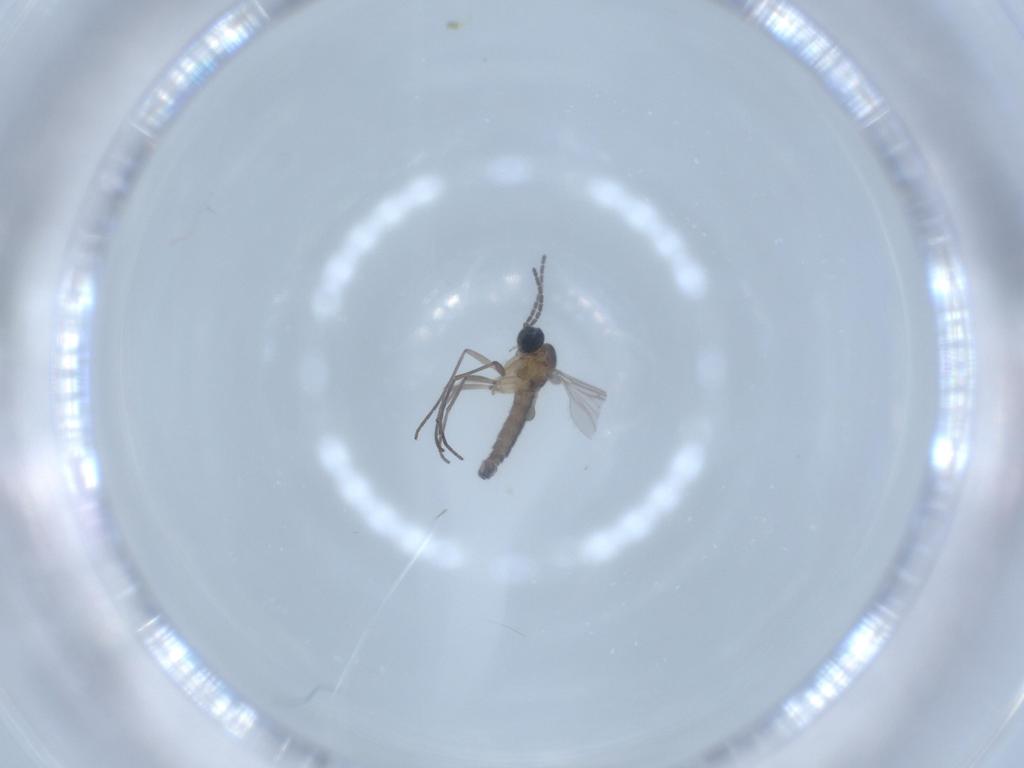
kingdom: Animalia
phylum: Arthropoda
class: Insecta
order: Diptera
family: Sciaridae
